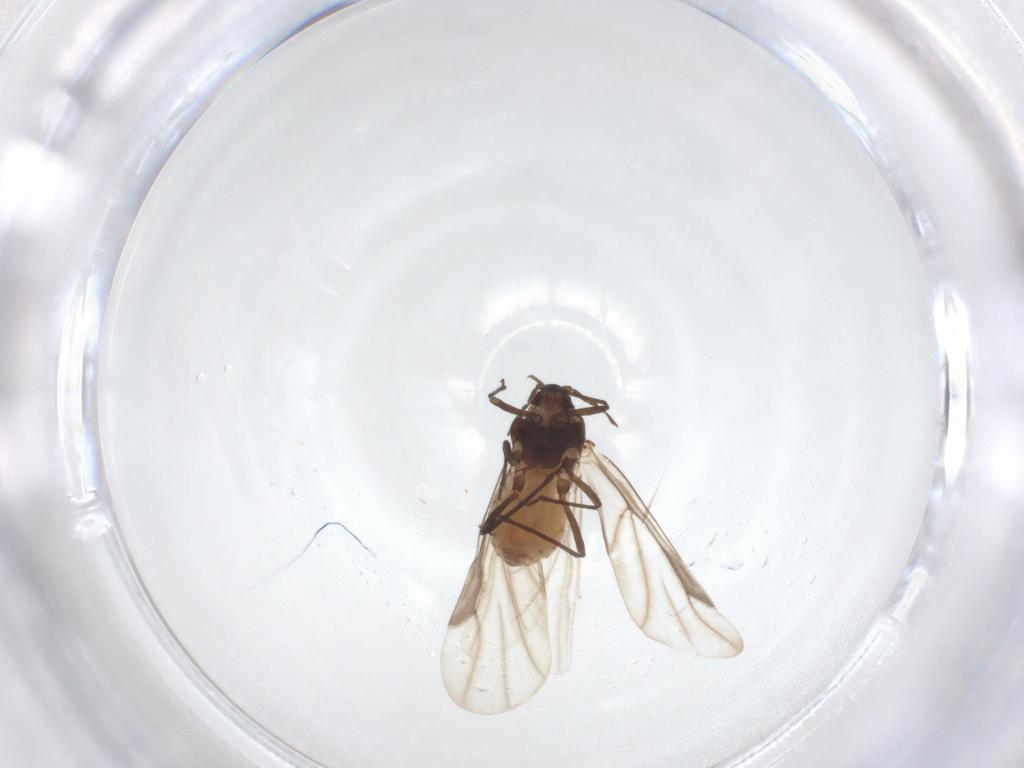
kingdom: Animalia
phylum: Arthropoda
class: Insecta
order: Hemiptera
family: Aphididae
